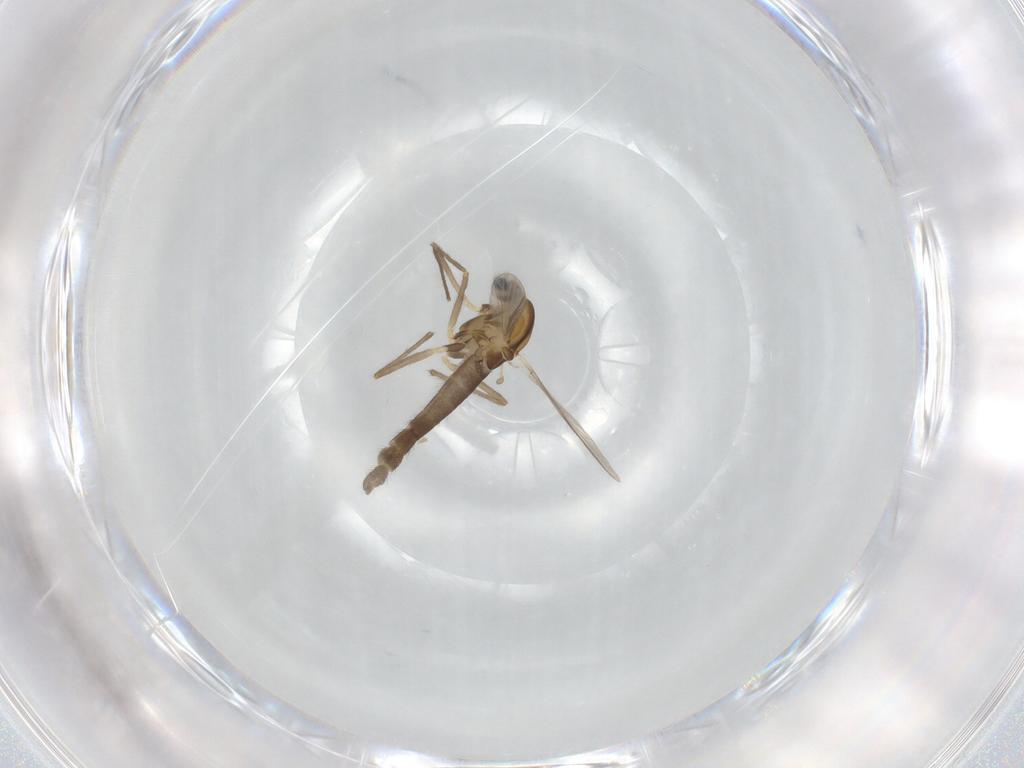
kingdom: Animalia
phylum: Arthropoda
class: Insecta
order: Diptera
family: Chironomidae
